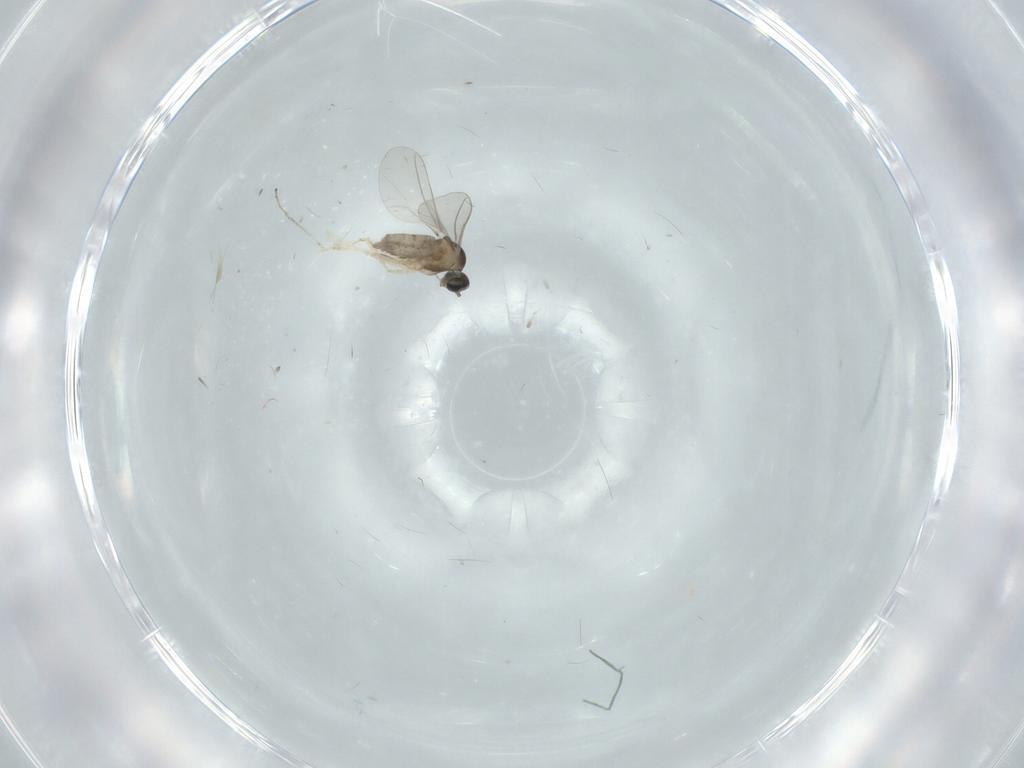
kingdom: Animalia
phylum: Arthropoda
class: Insecta
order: Diptera
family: Cecidomyiidae
